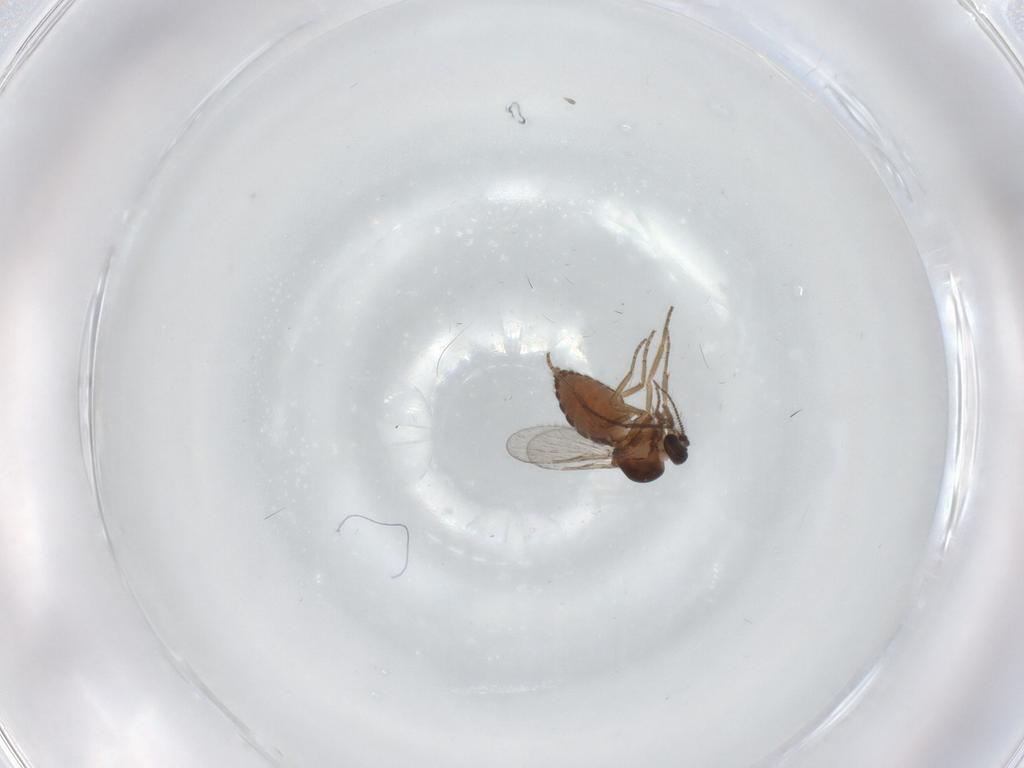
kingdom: Animalia
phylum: Arthropoda
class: Insecta
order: Diptera
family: Ceratopogonidae
